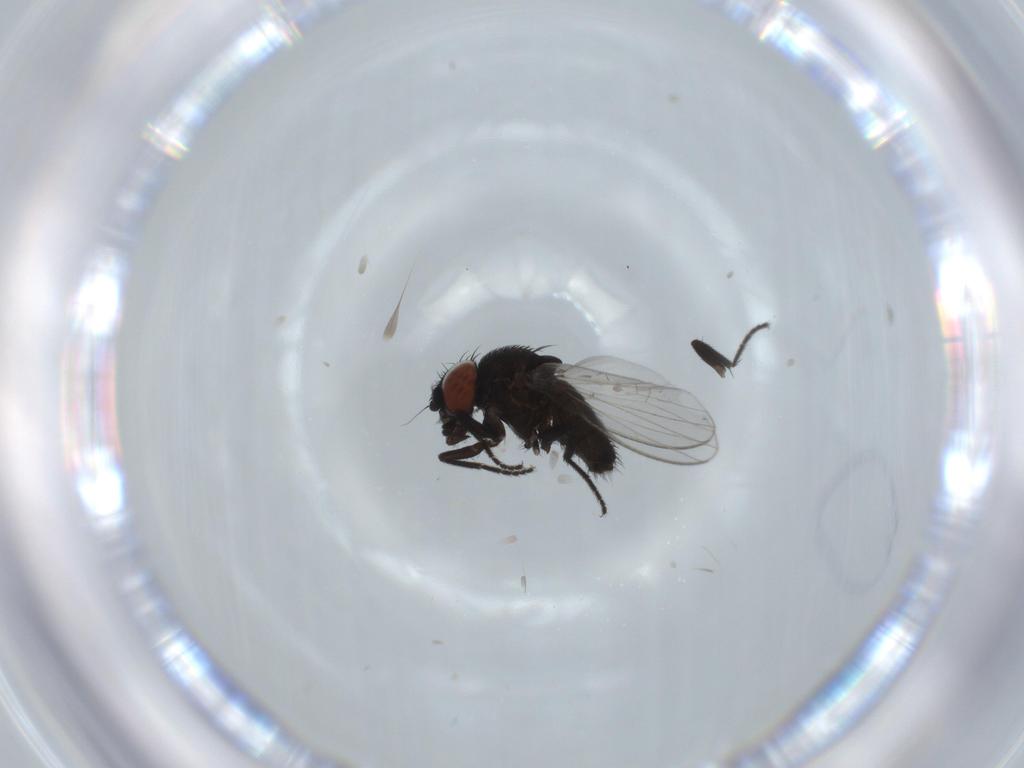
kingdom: Animalia
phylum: Arthropoda
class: Insecta
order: Diptera
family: Milichiidae
